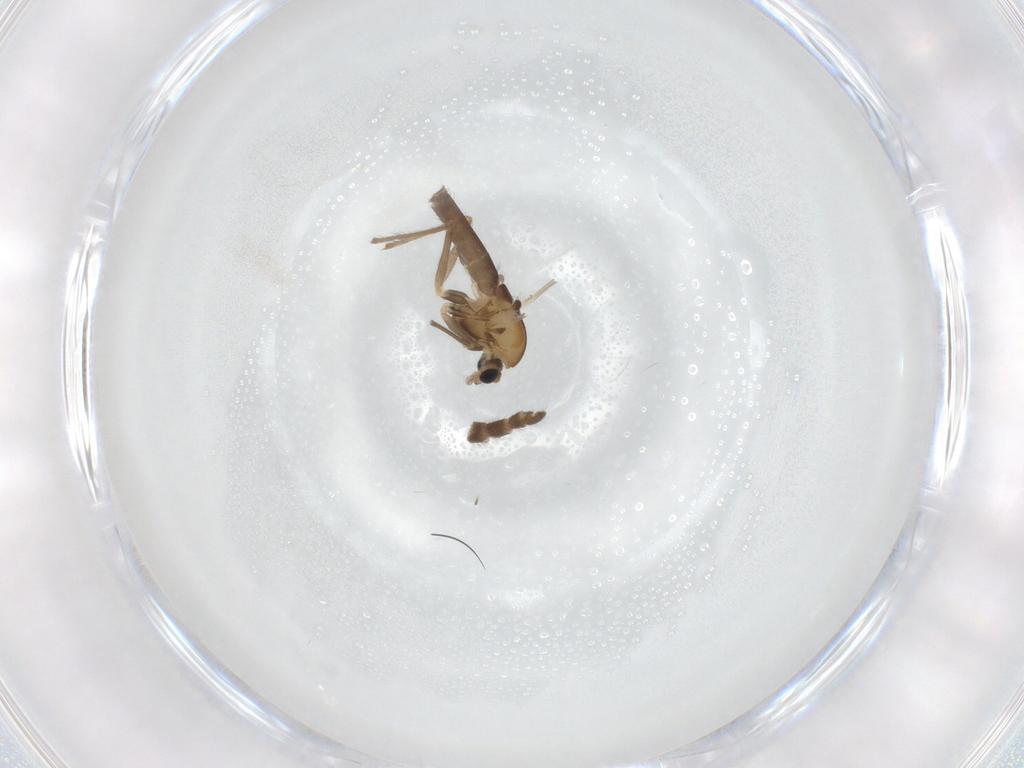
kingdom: Animalia
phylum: Arthropoda
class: Insecta
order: Diptera
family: Chironomidae
